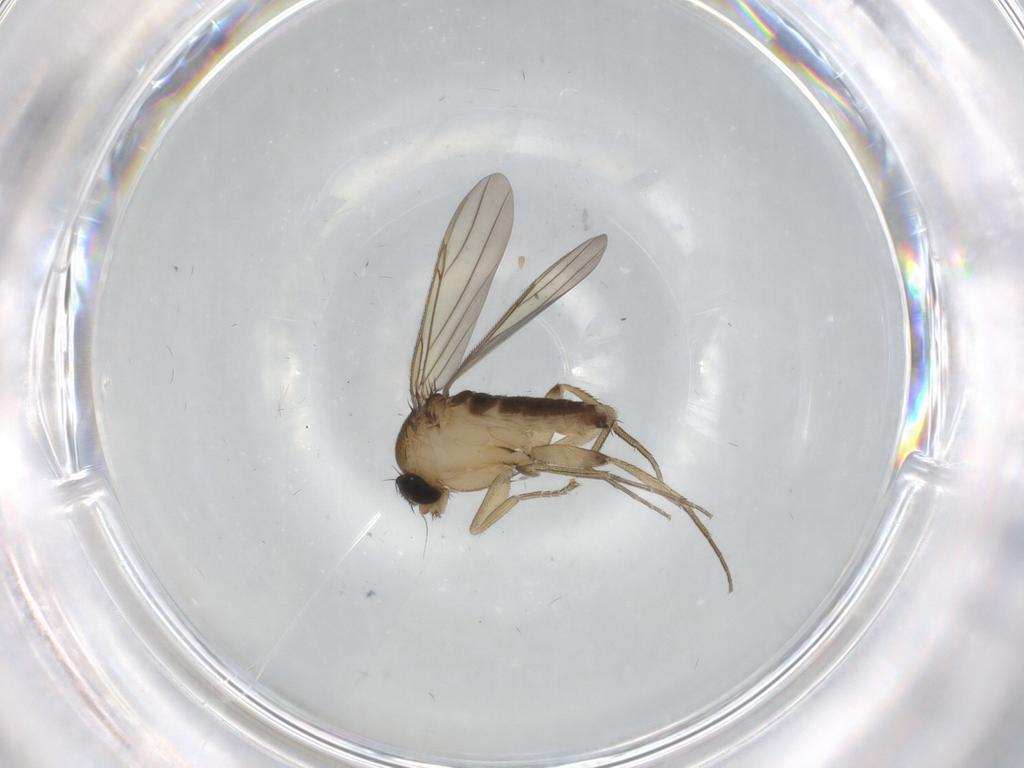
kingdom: Animalia
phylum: Arthropoda
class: Insecta
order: Diptera
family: Phoridae
